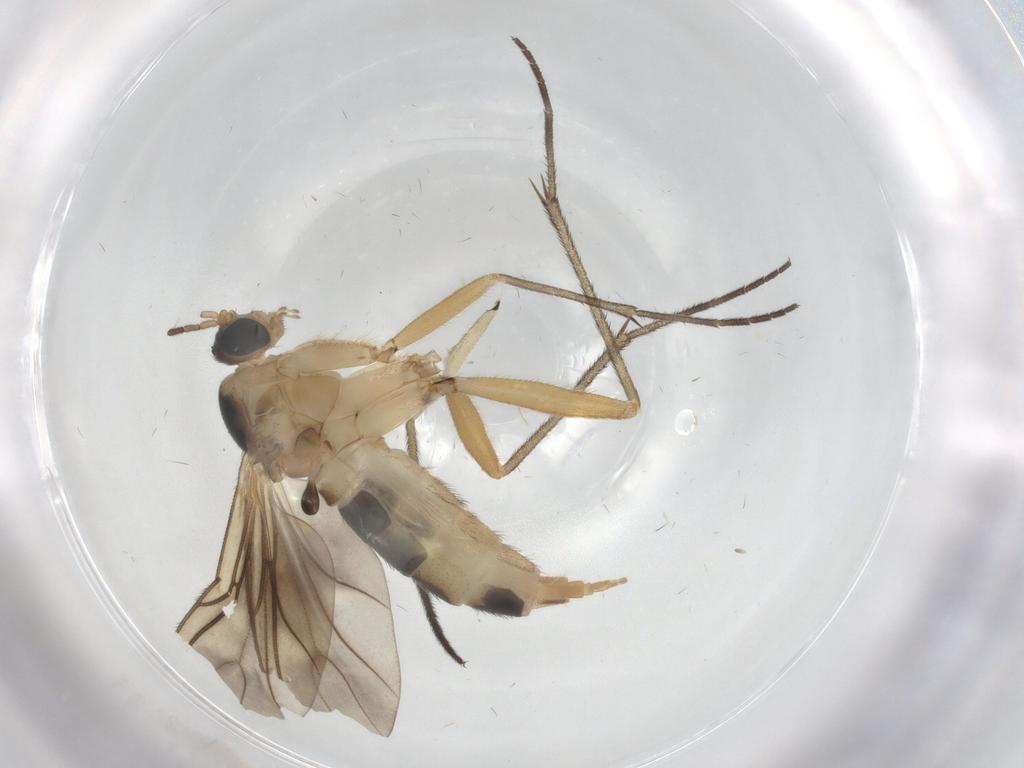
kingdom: Animalia
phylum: Arthropoda
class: Insecta
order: Diptera
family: Sciaridae
